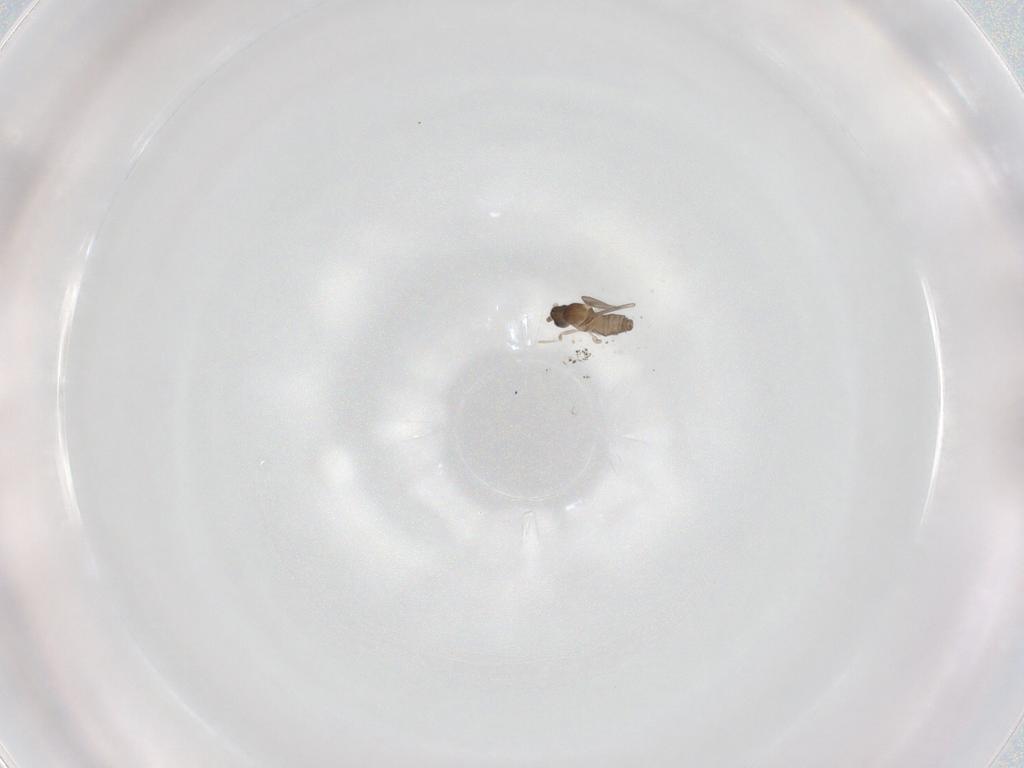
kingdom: Animalia
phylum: Arthropoda
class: Insecta
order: Diptera
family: Cecidomyiidae
